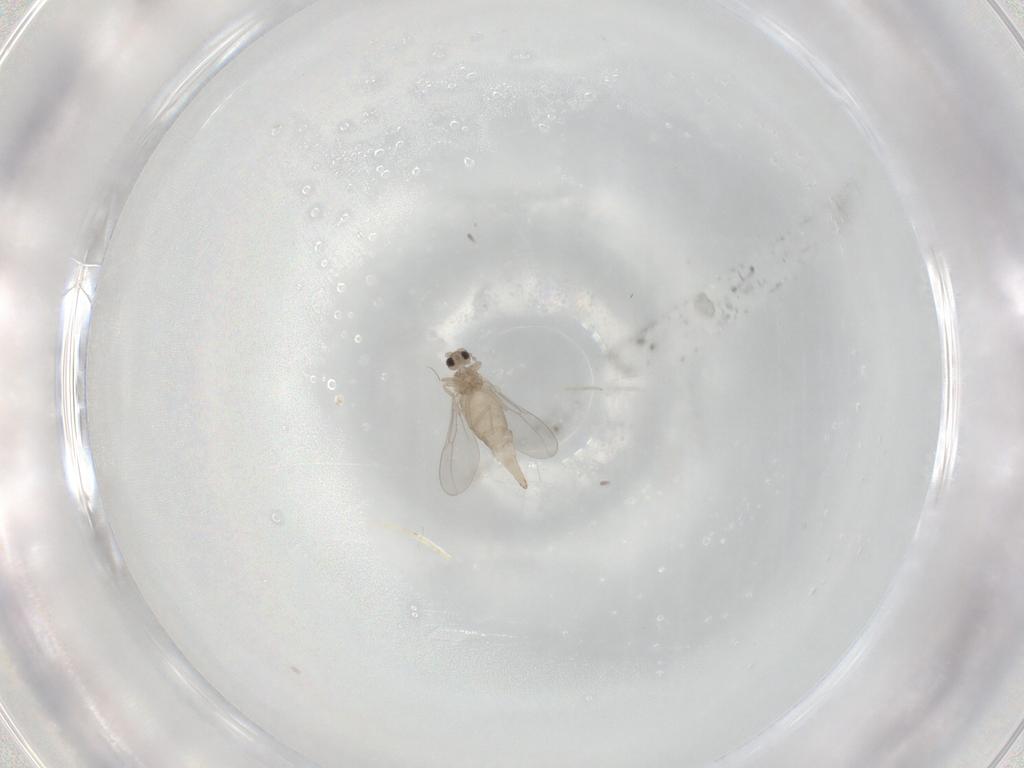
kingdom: Animalia
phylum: Arthropoda
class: Insecta
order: Diptera
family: Cecidomyiidae
